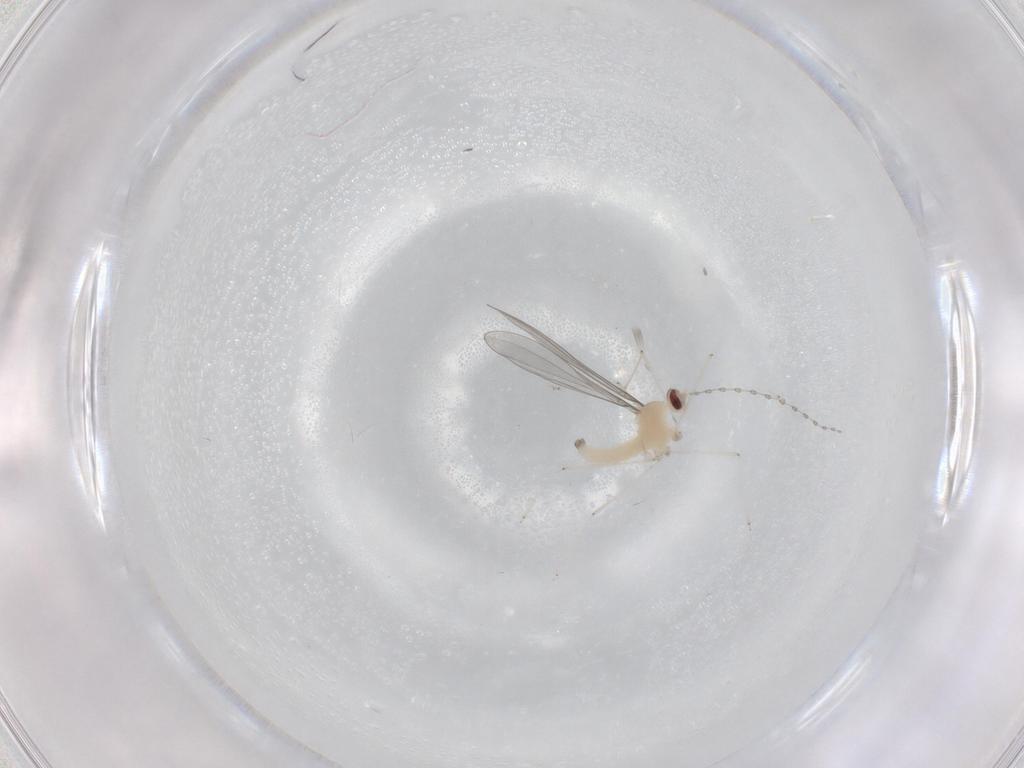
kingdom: Animalia
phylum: Arthropoda
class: Insecta
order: Diptera
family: Cecidomyiidae
